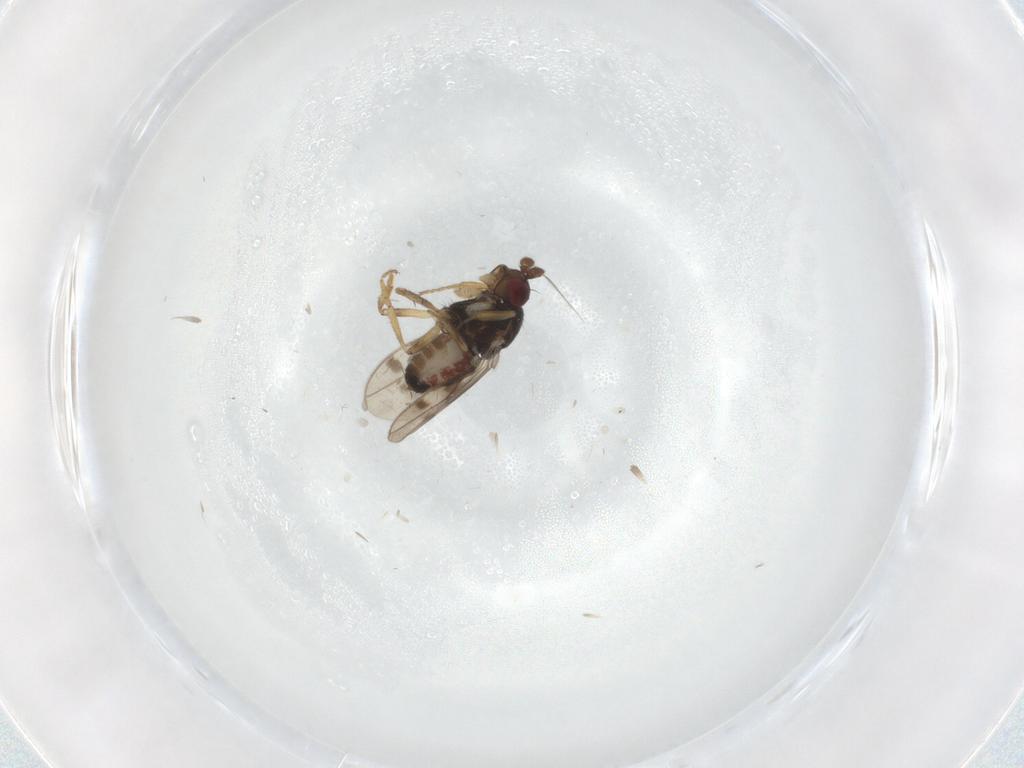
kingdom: Animalia
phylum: Arthropoda
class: Insecta
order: Diptera
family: Sphaeroceridae
